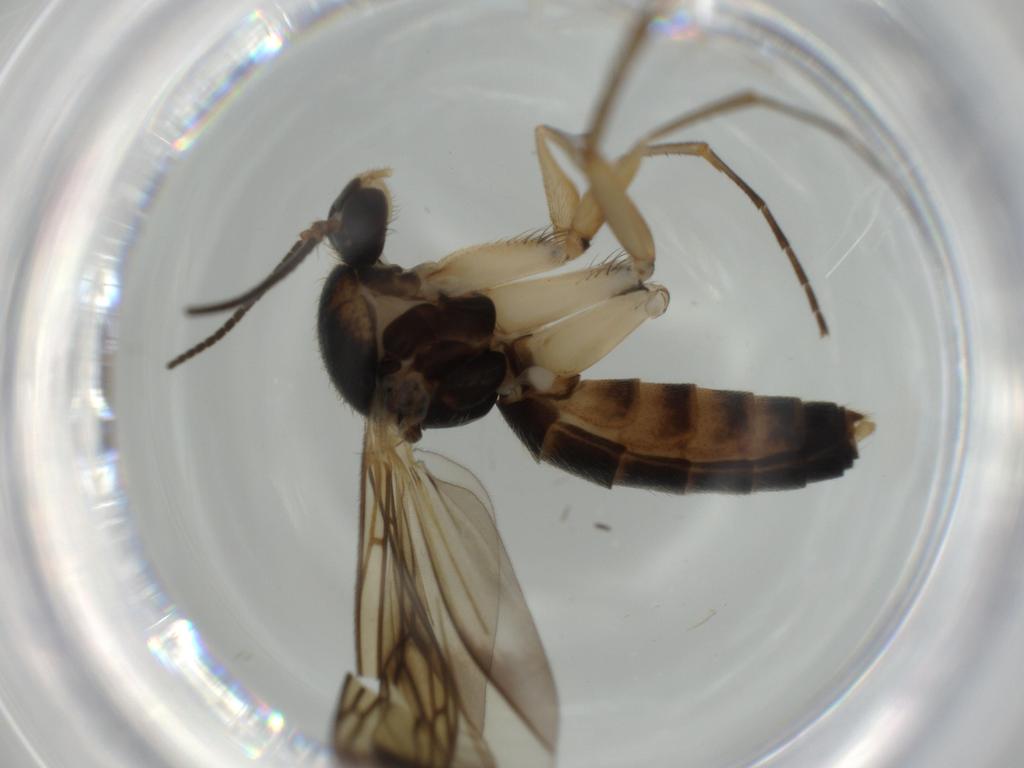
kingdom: Animalia
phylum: Arthropoda
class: Insecta
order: Diptera
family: Mycetophilidae
